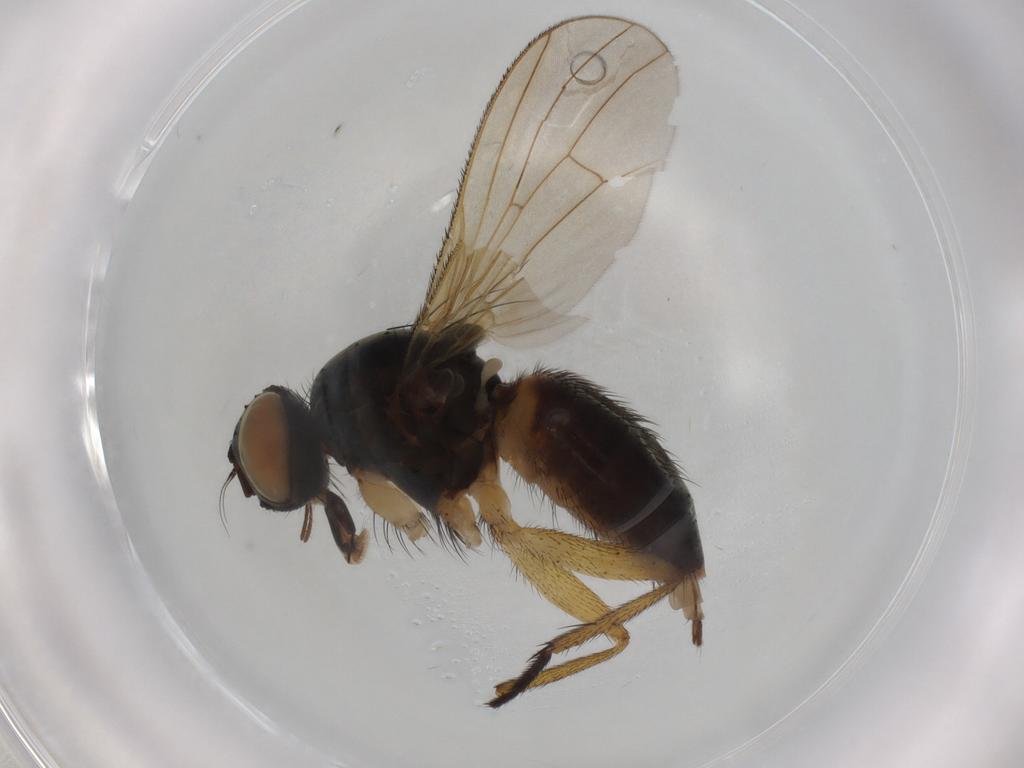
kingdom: Animalia
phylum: Arthropoda
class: Insecta
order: Diptera
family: Muscidae
